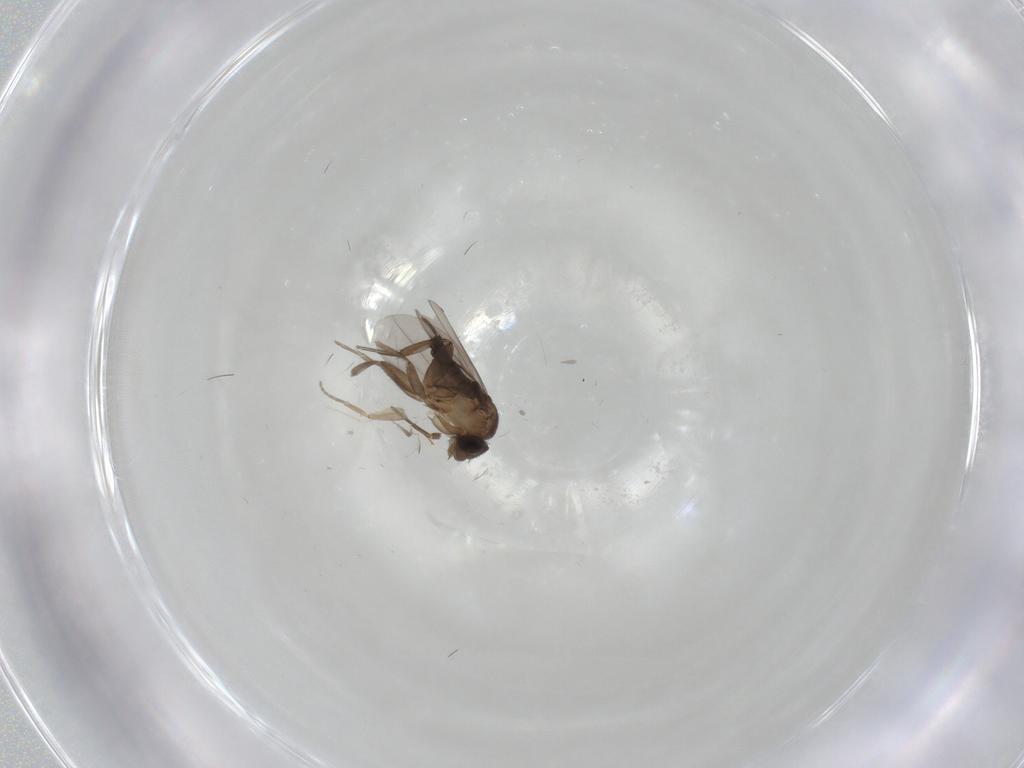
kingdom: Animalia
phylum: Arthropoda
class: Insecta
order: Diptera
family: Phoridae
